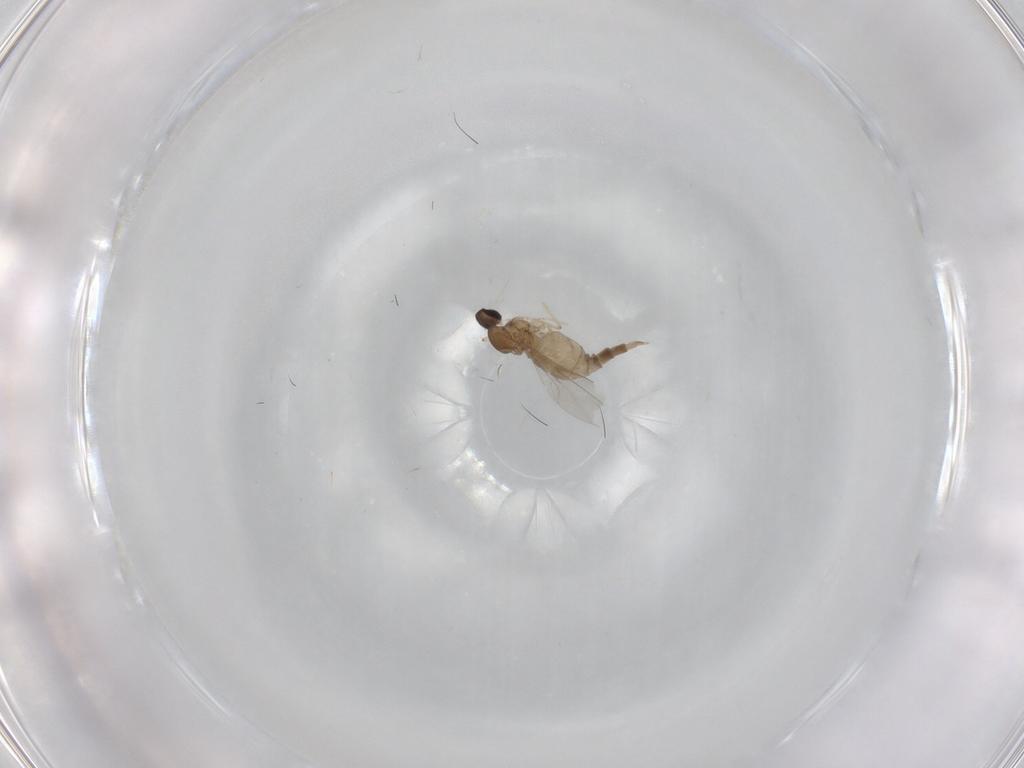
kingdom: Animalia
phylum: Arthropoda
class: Insecta
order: Diptera
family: Cecidomyiidae
